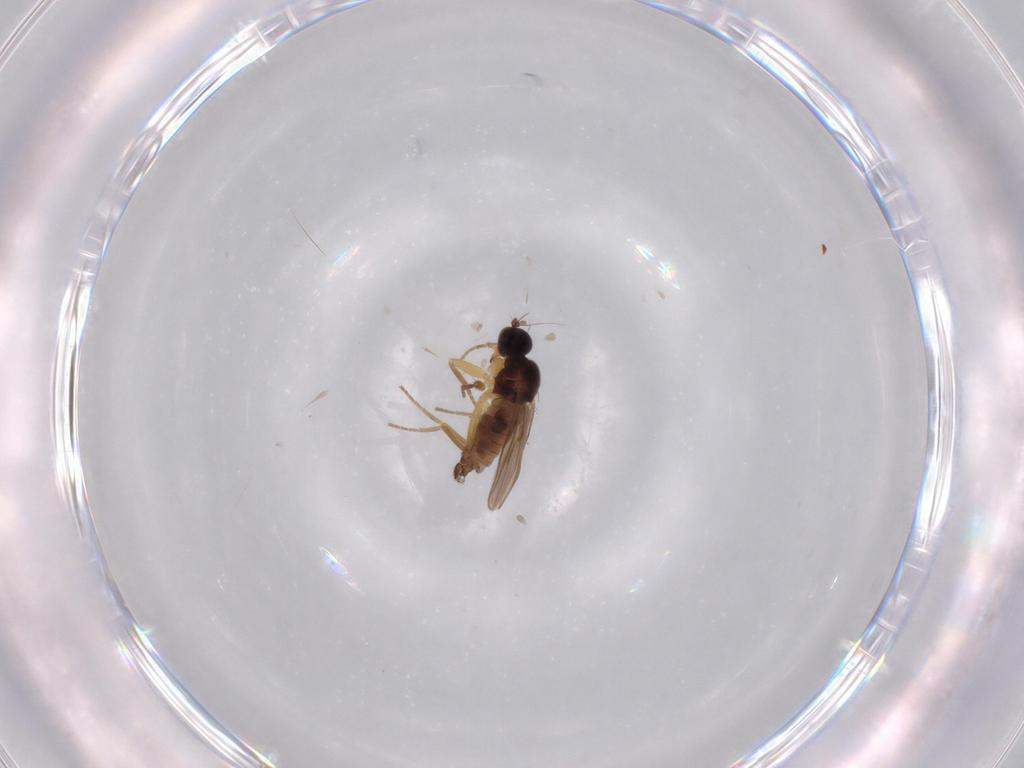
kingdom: Animalia
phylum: Arthropoda
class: Insecta
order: Diptera
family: Hybotidae
